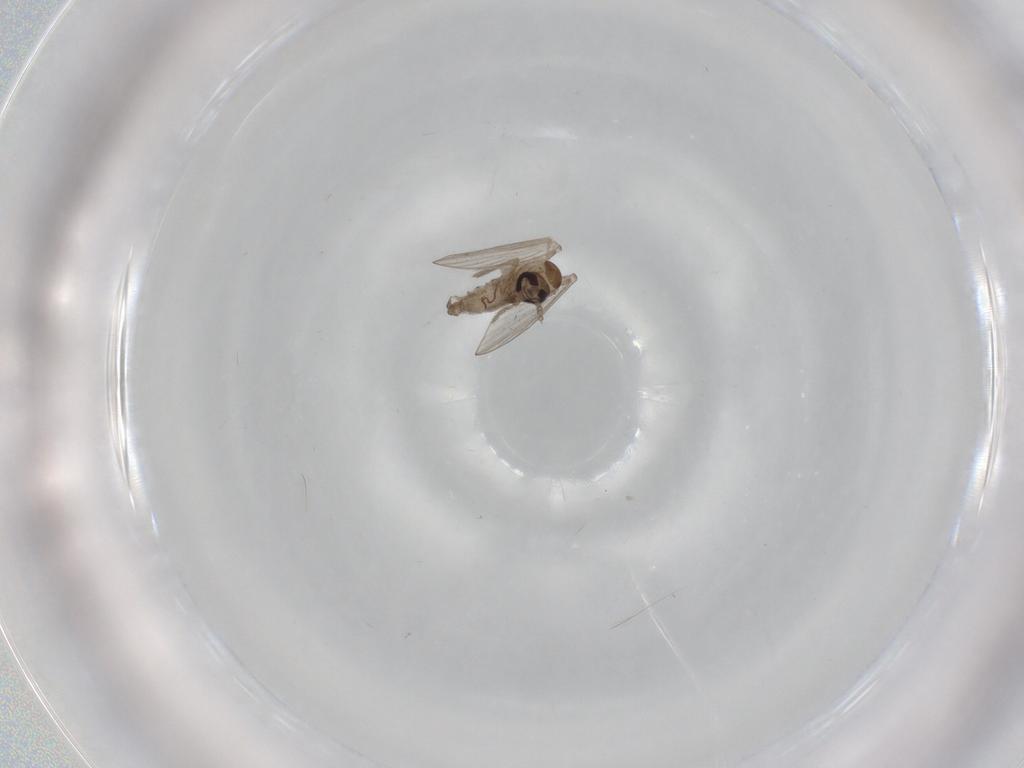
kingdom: Animalia
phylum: Arthropoda
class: Insecta
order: Diptera
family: Psychodidae
